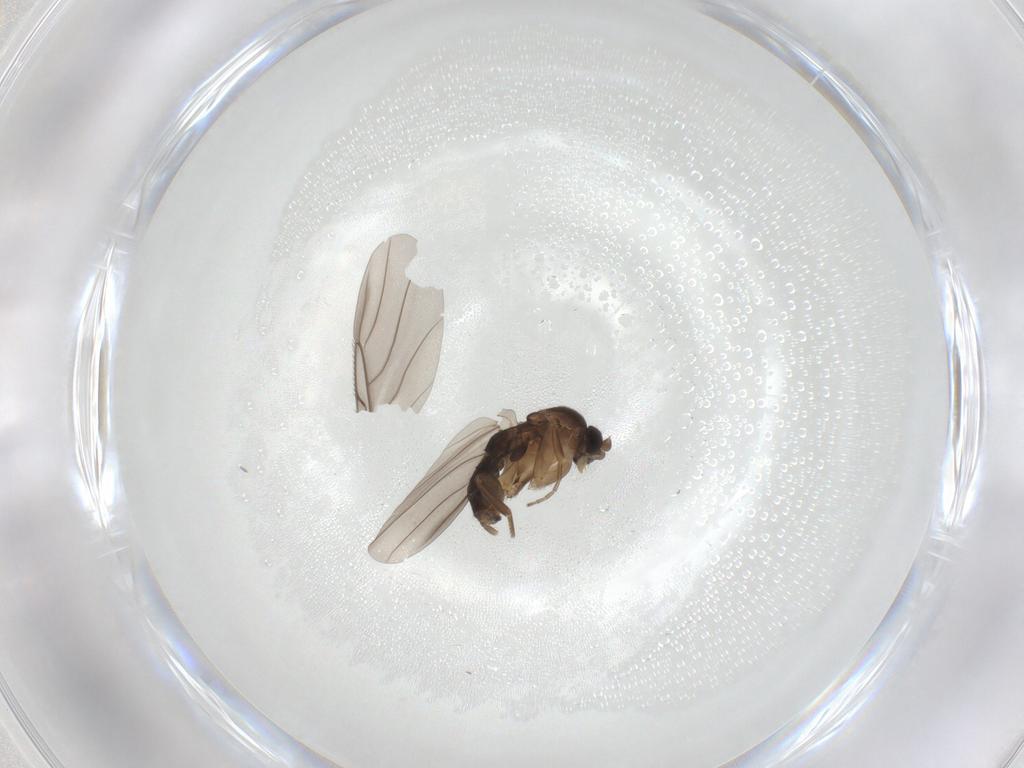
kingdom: Animalia
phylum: Arthropoda
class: Insecta
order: Diptera
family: Phoridae
